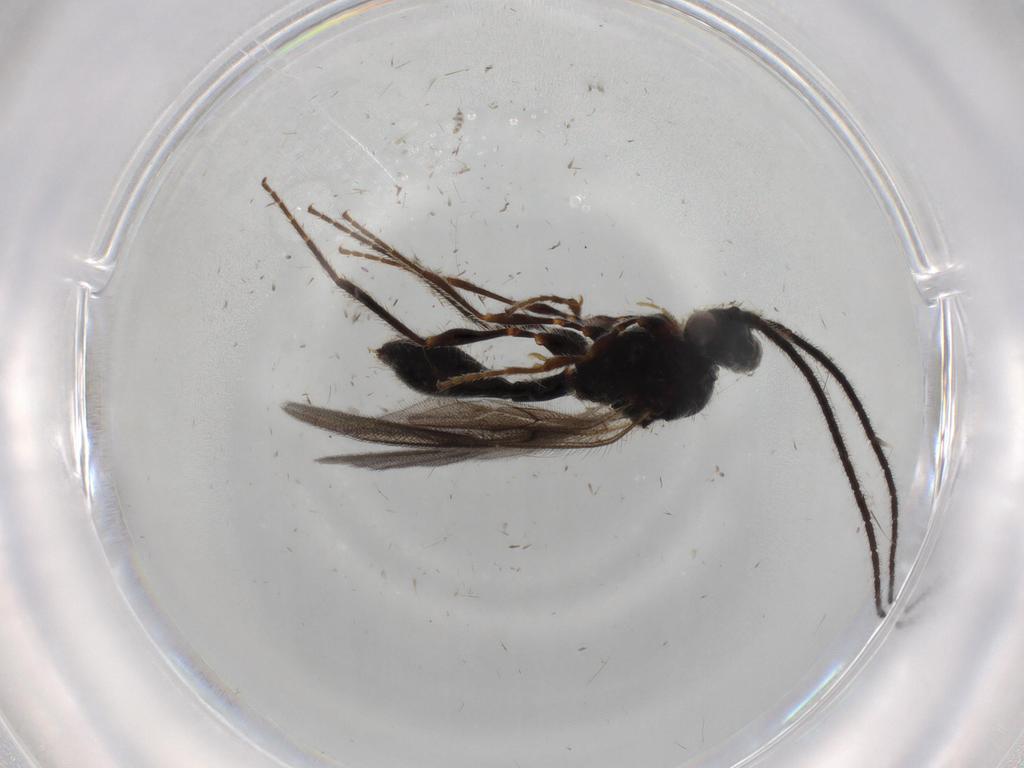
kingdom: Animalia
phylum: Arthropoda
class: Insecta
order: Hymenoptera
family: Diapriidae
